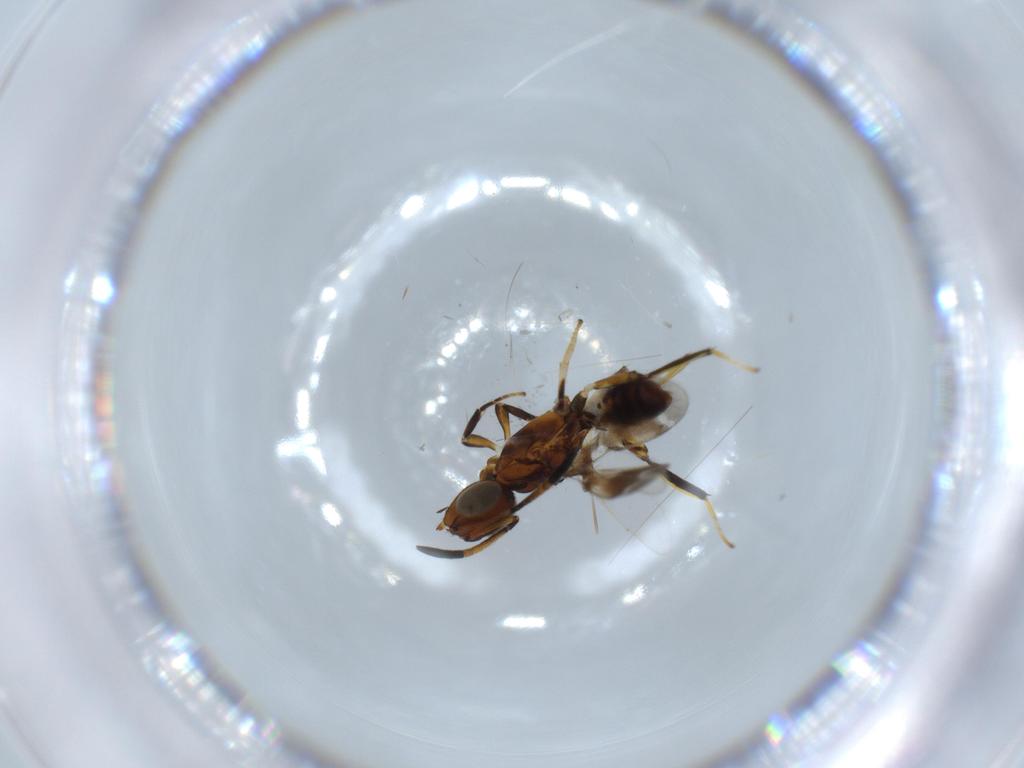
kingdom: Animalia
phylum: Arthropoda
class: Insecta
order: Hymenoptera
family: Eupelmidae
